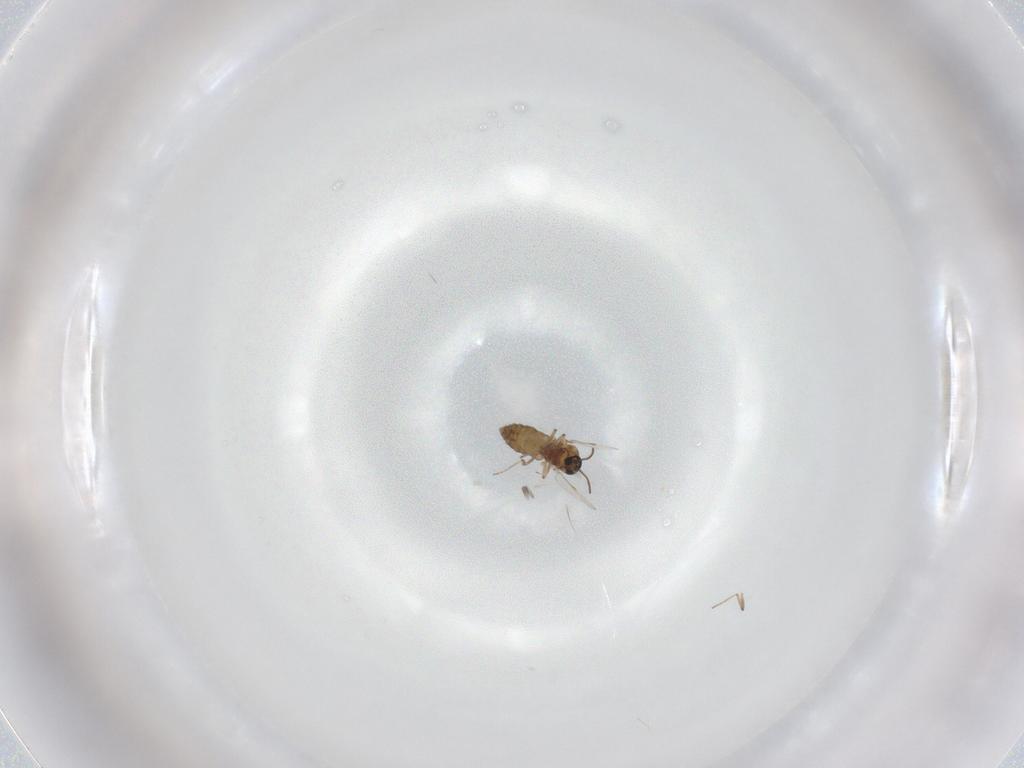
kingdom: Animalia
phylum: Arthropoda
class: Insecta
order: Diptera
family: Ceratopogonidae
